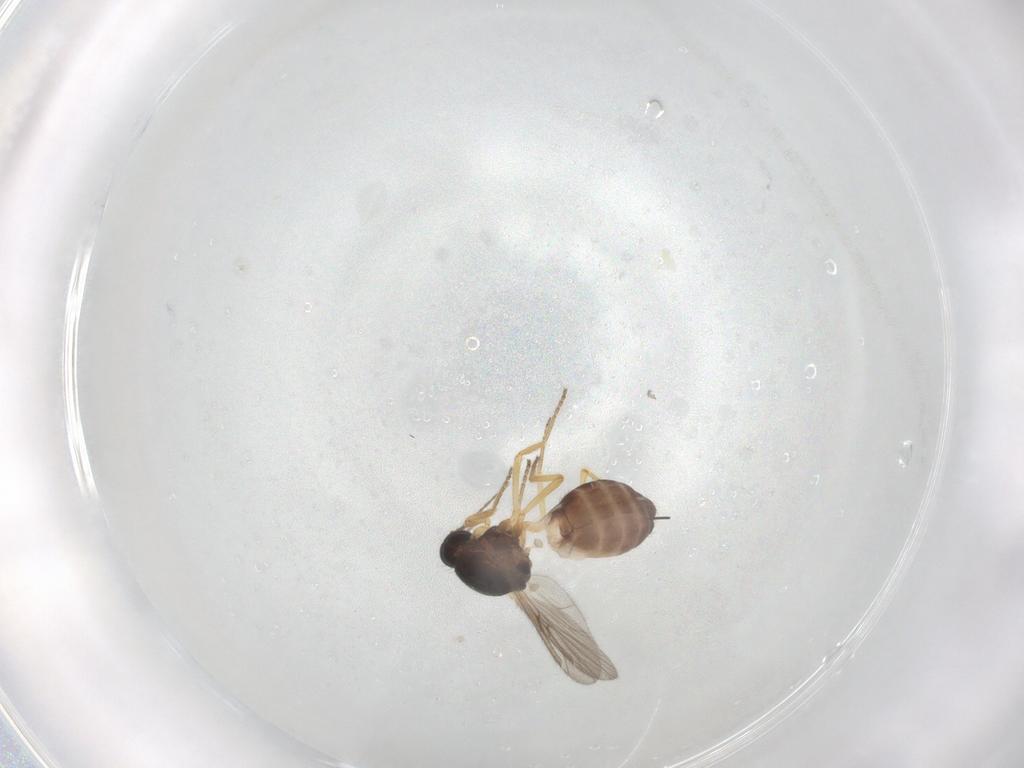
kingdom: Animalia
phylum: Arthropoda
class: Insecta
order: Diptera
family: Ceratopogonidae
